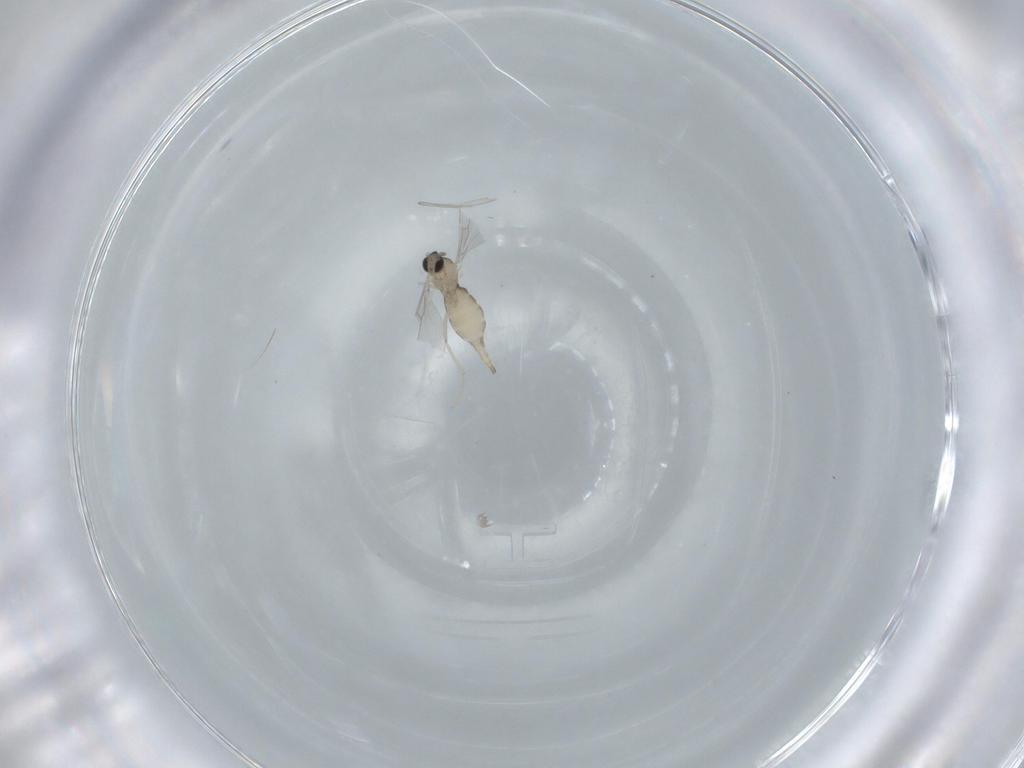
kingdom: Animalia
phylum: Arthropoda
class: Insecta
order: Diptera
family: Cecidomyiidae
